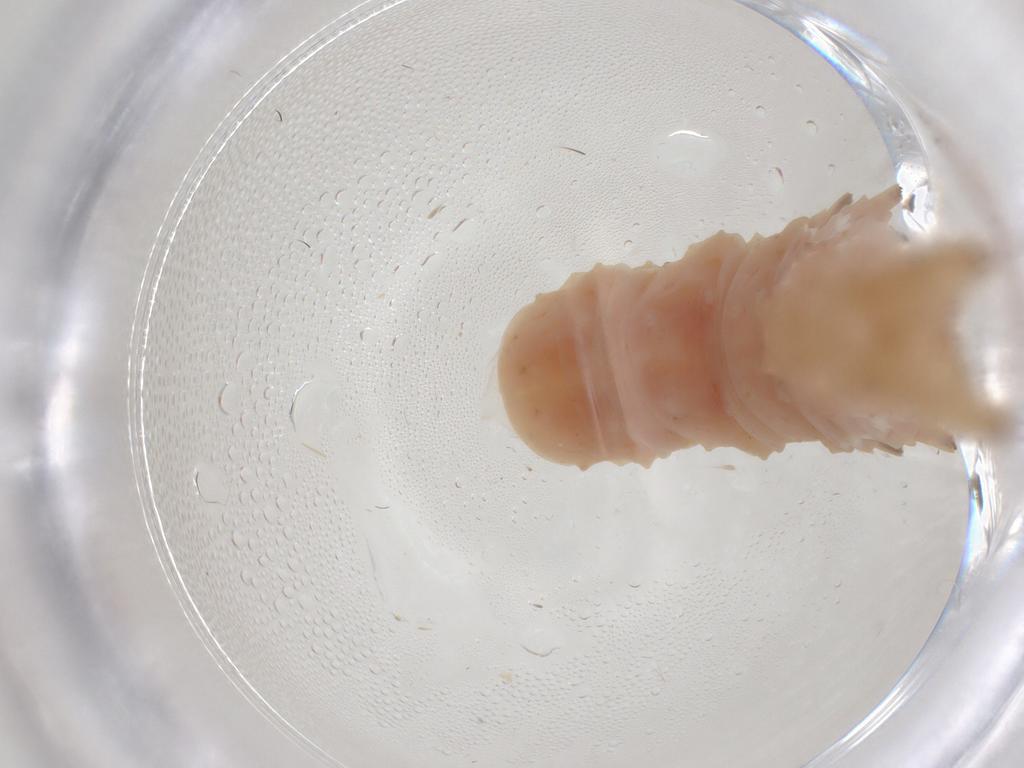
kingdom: Animalia
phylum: Arthropoda
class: Insecta
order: Lepidoptera
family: Erebidae
